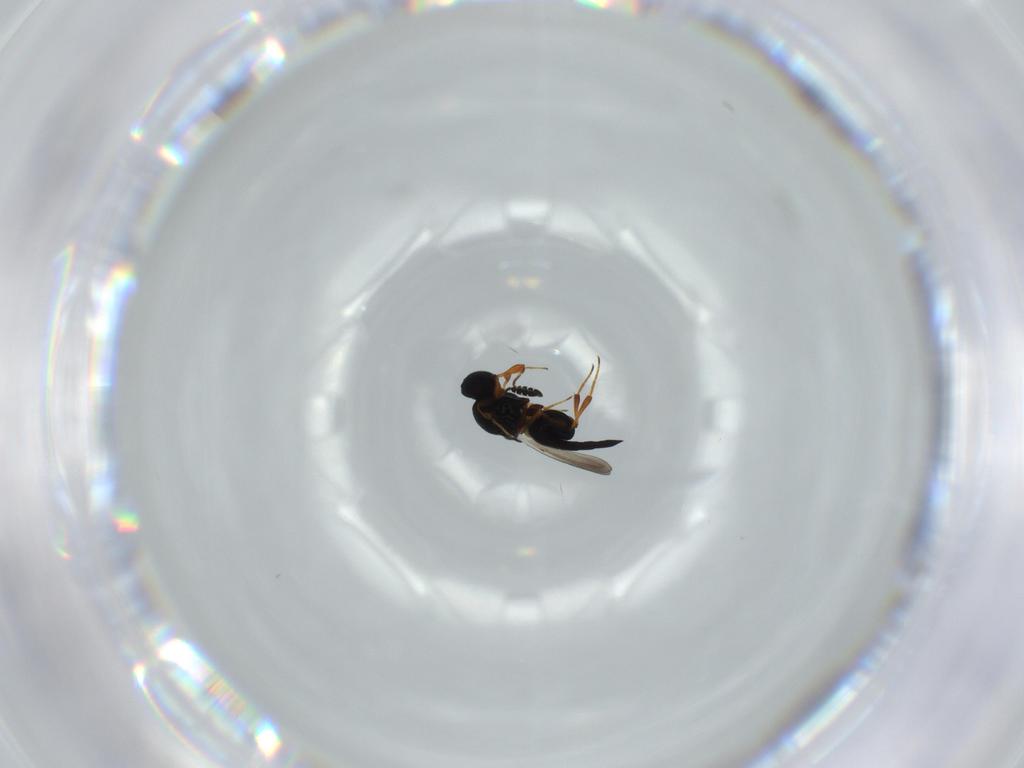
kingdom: Animalia
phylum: Arthropoda
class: Insecta
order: Hymenoptera
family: Platygastridae
